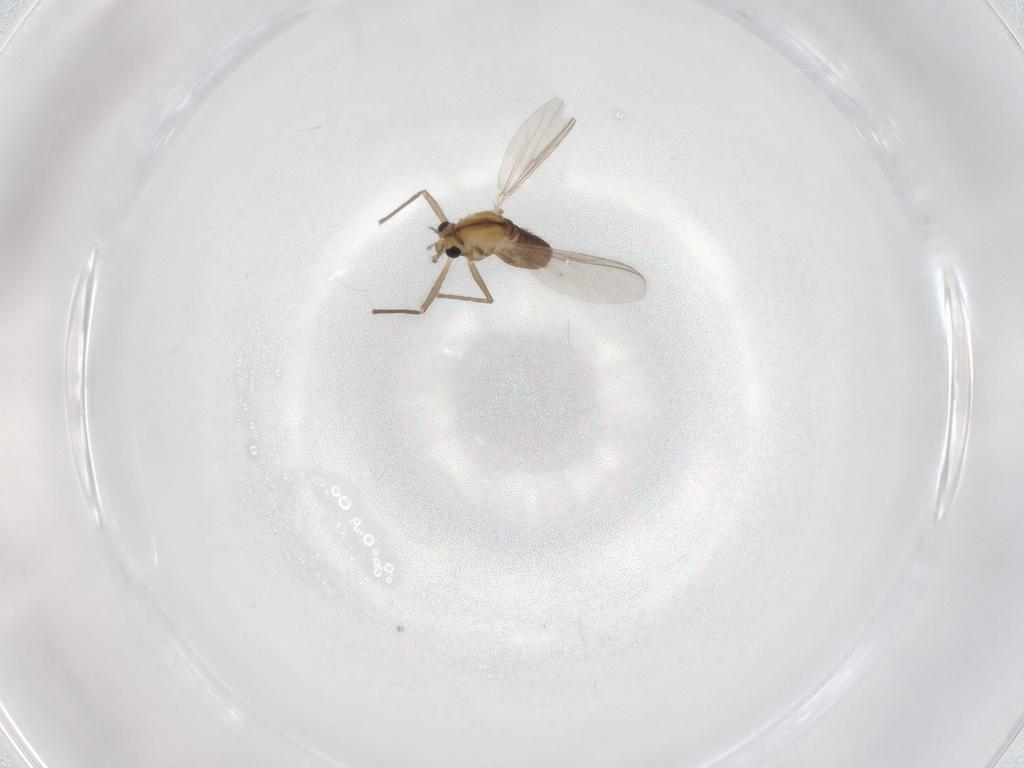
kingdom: Animalia
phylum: Arthropoda
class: Insecta
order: Diptera
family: Chironomidae
